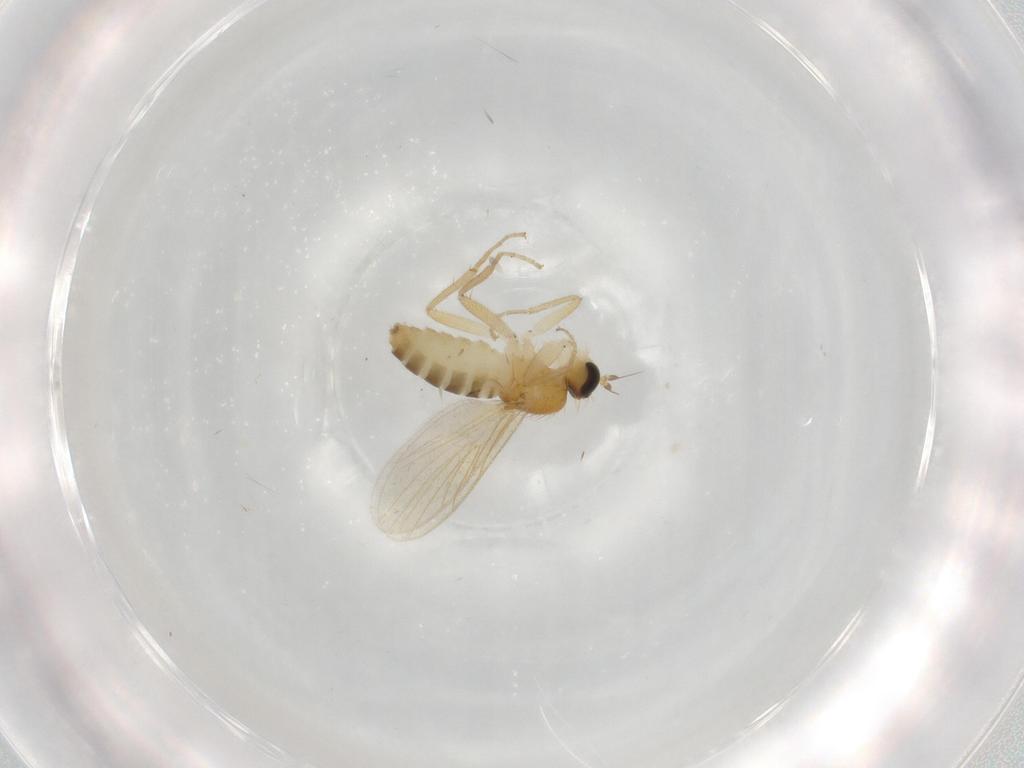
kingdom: Animalia
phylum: Arthropoda
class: Insecta
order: Diptera
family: Hybotidae
